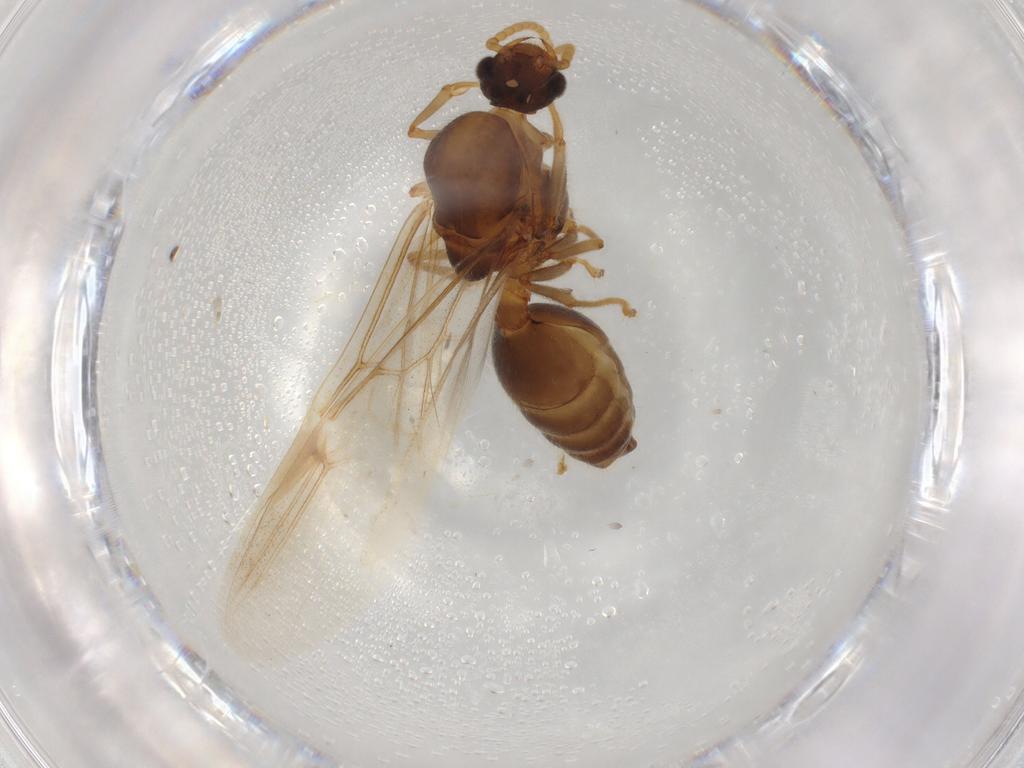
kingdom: Animalia
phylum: Arthropoda
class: Insecta
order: Hymenoptera
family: Formicidae
